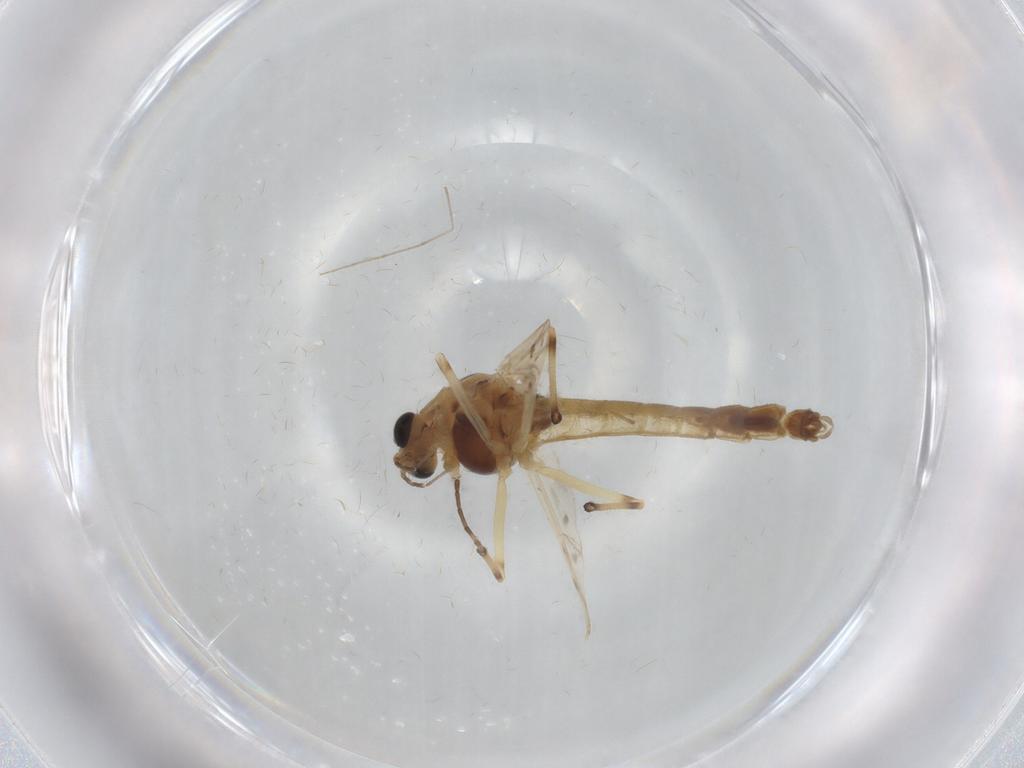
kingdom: Animalia
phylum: Arthropoda
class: Insecta
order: Diptera
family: Chironomidae
